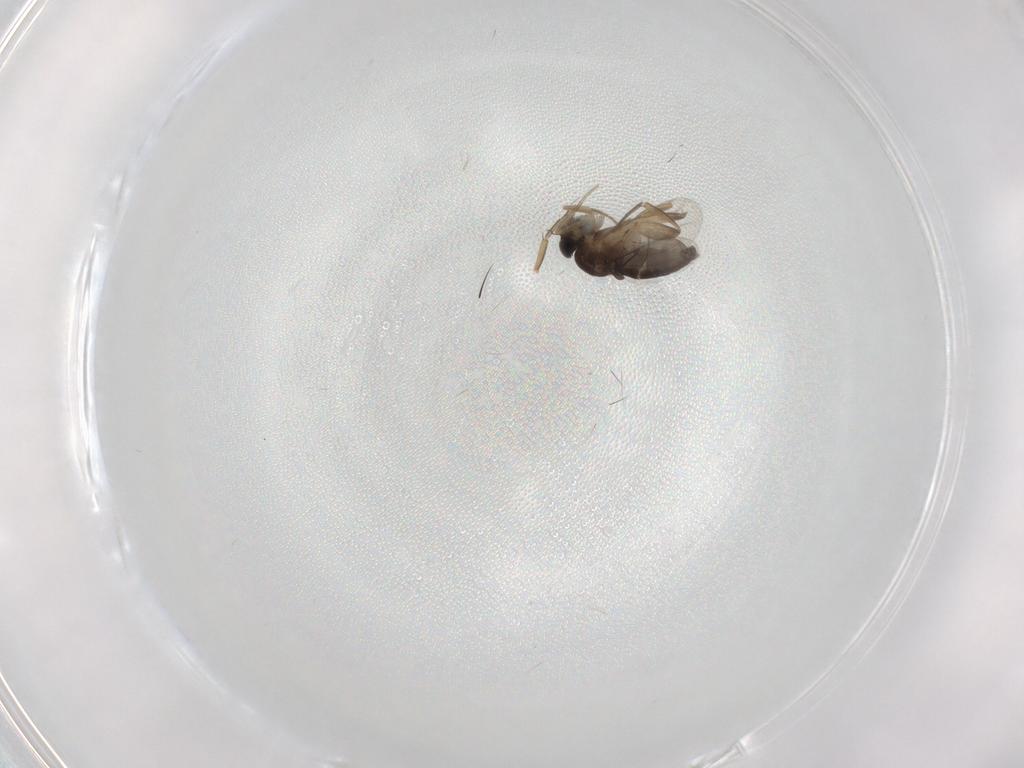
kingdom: Animalia
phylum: Arthropoda
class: Insecta
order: Diptera
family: Phoridae
